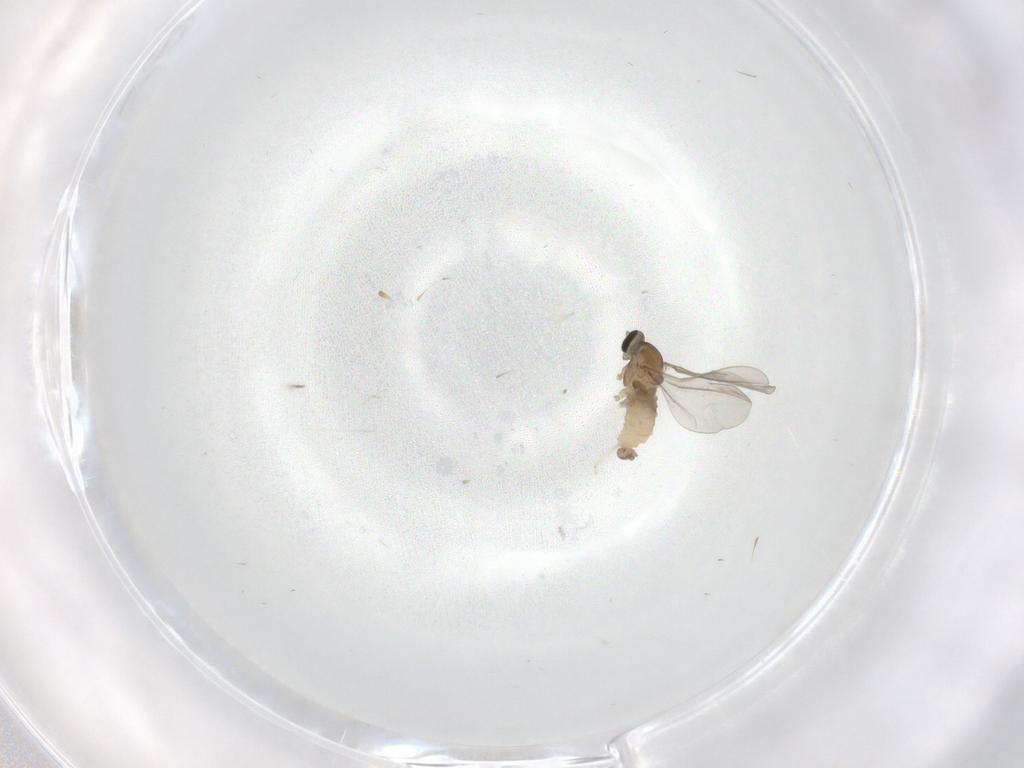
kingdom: Animalia
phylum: Arthropoda
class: Insecta
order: Diptera
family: Cecidomyiidae
